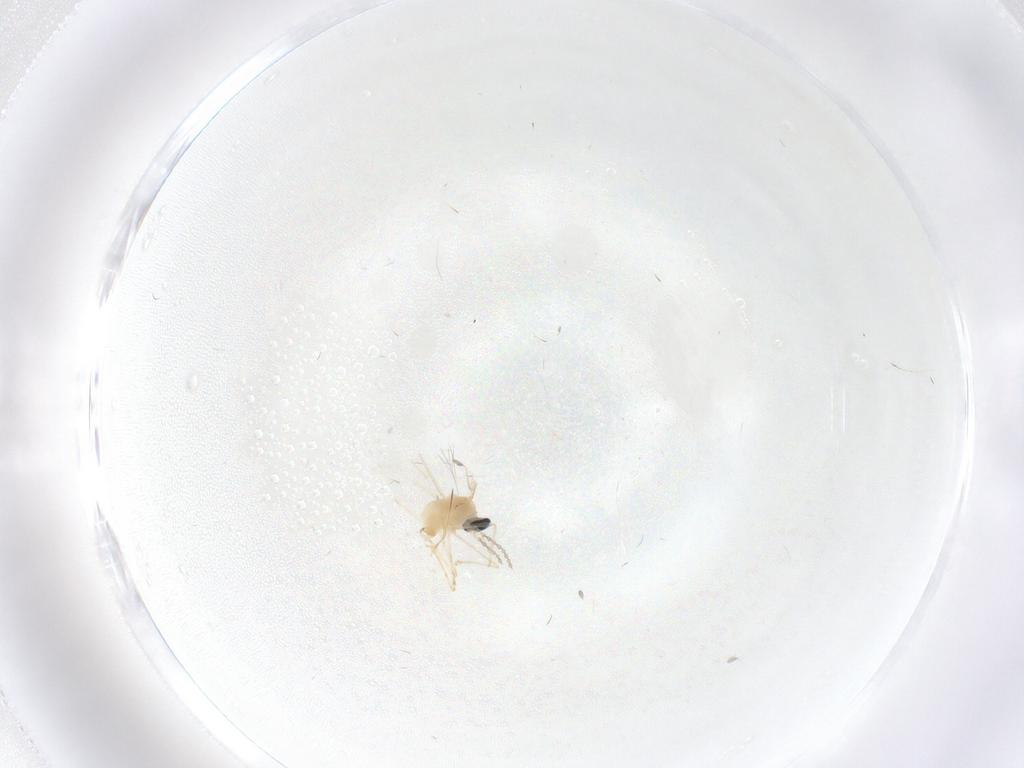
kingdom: Animalia
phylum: Arthropoda
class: Insecta
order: Diptera
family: Cecidomyiidae
